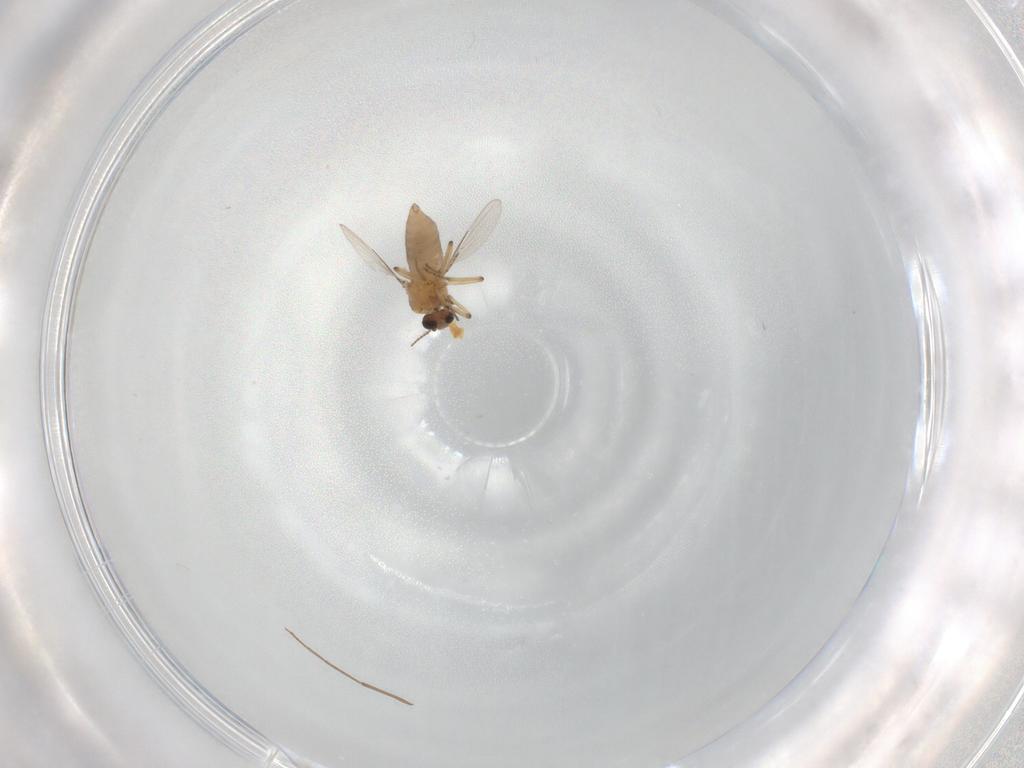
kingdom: Animalia
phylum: Arthropoda
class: Insecta
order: Diptera
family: Ceratopogonidae
